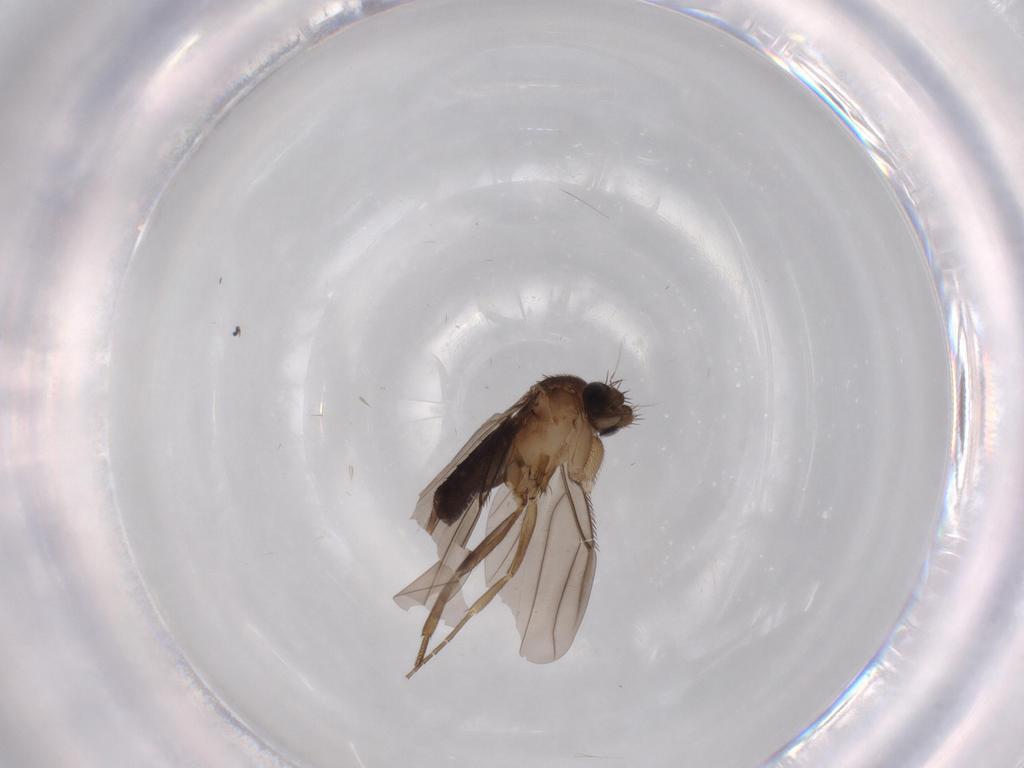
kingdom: Animalia
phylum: Arthropoda
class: Insecta
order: Diptera
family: Sciaridae
